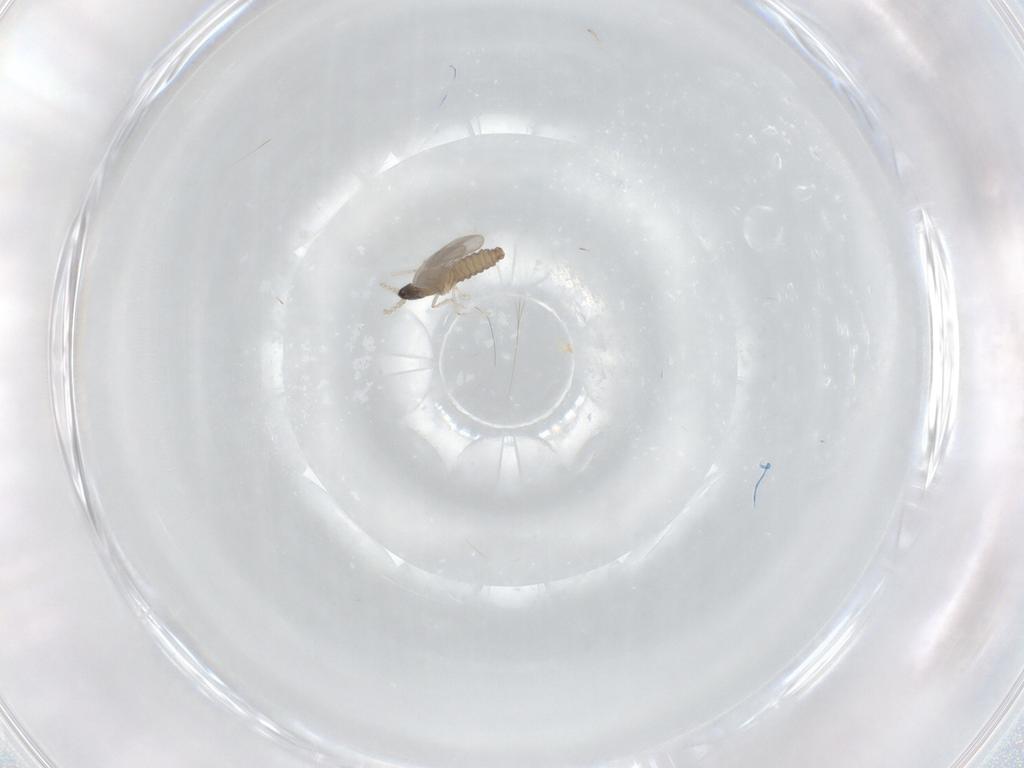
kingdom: Animalia
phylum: Arthropoda
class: Insecta
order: Diptera
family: Cecidomyiidae
